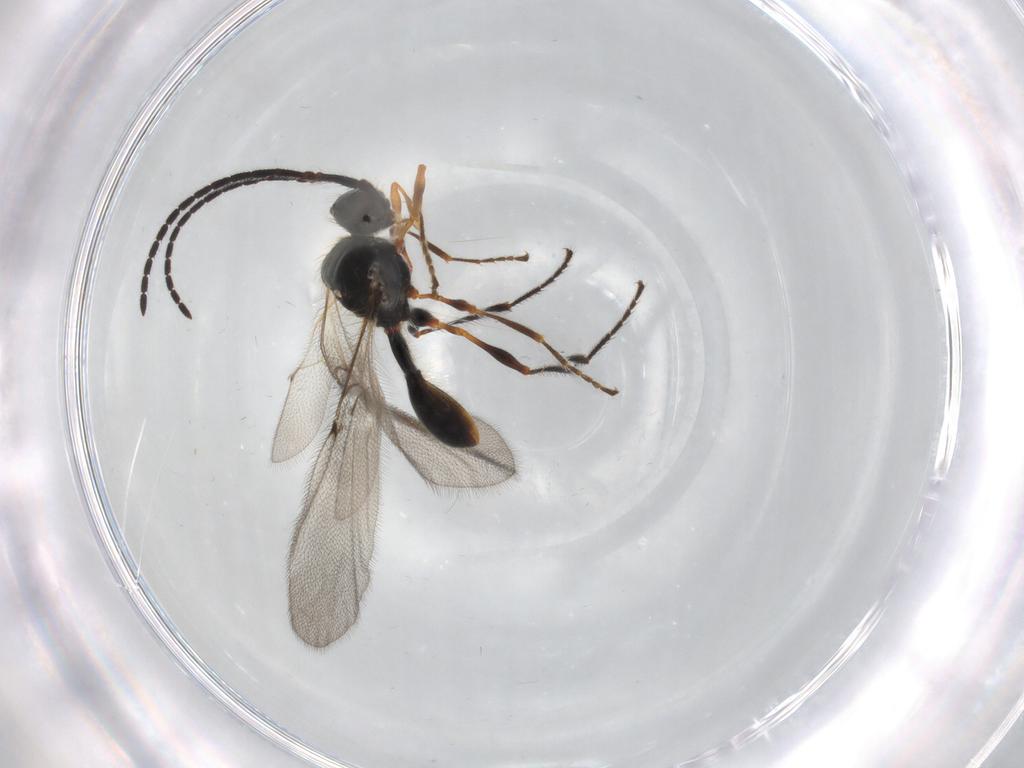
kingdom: Animalia
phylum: Arthropoda
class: Insecta
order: Hymenoptera
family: Diapriidae
